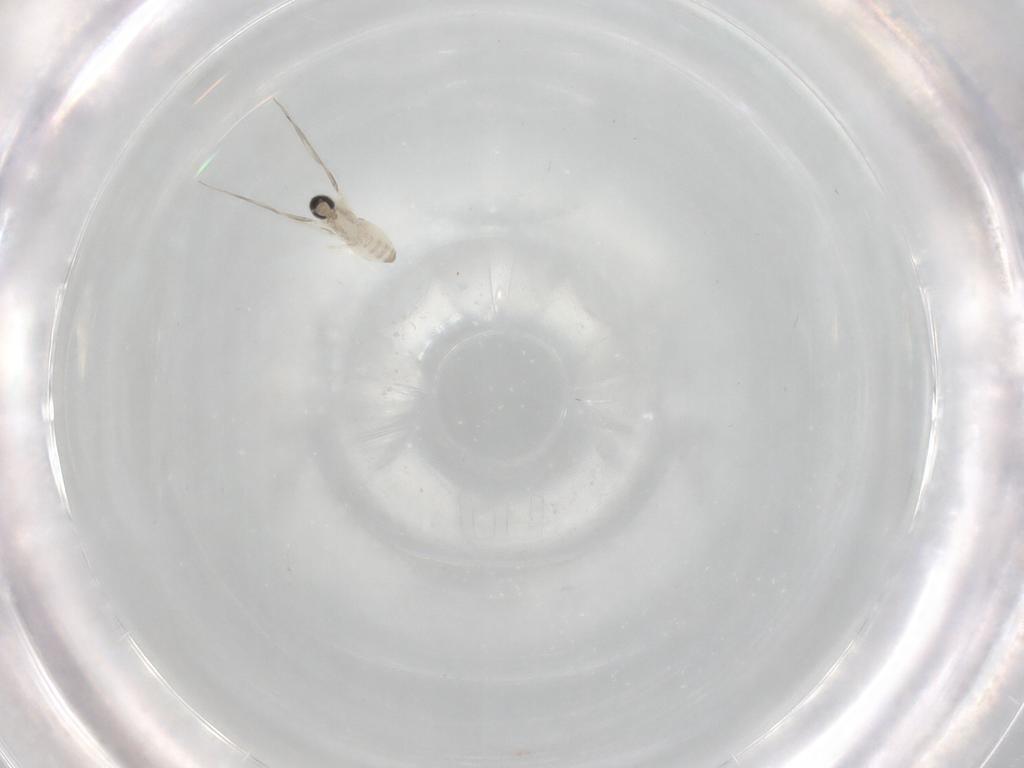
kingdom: Animalia
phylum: Arthropoda
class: Insecta
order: Diptera
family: Cecidomyiidae
